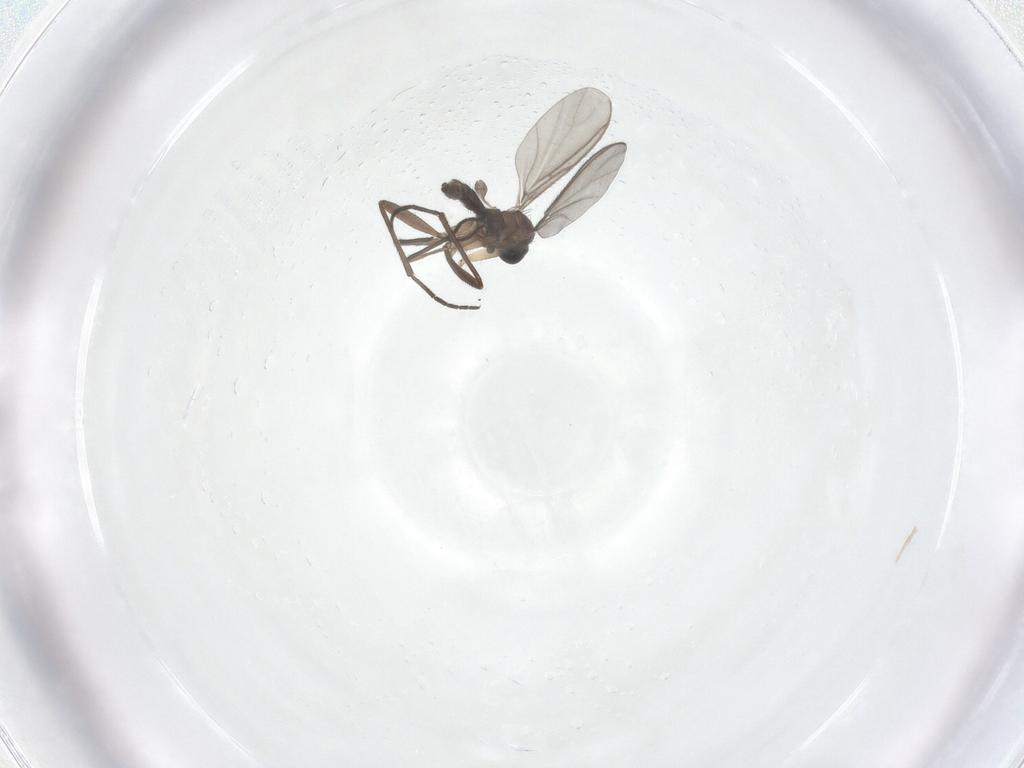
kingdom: Animalia
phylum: Arthropoda
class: Insecta
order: Diptera
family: Sciaridae
